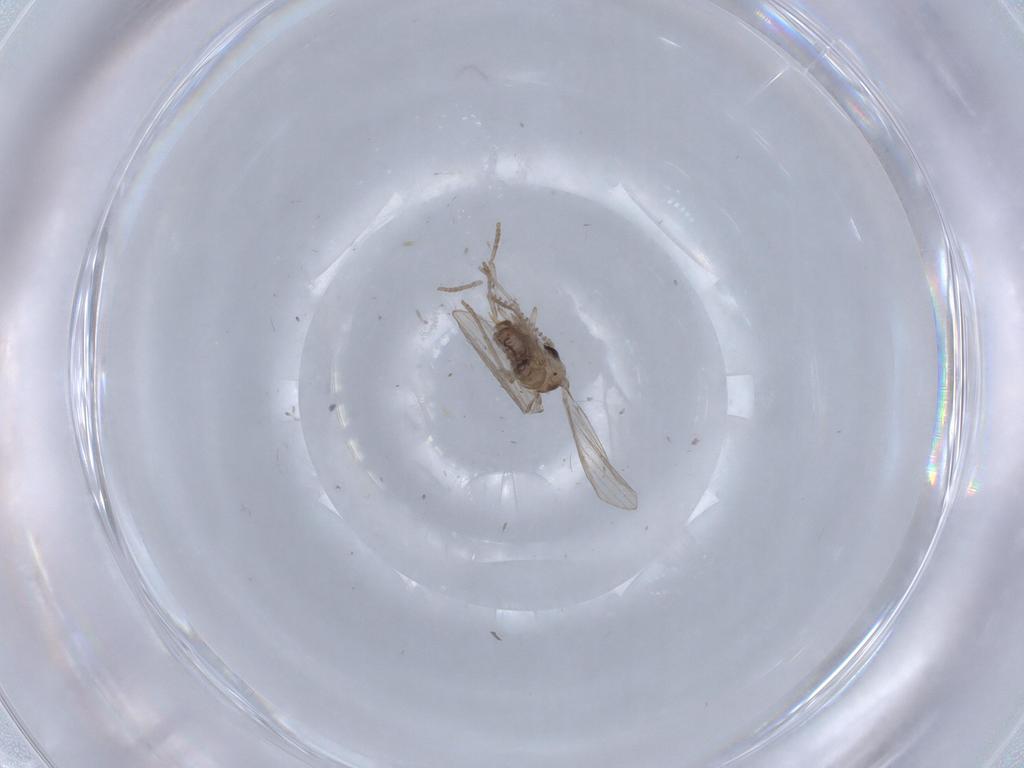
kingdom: Animalia
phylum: Arthropoda
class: Insecta
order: Diptera
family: Psychodidae
